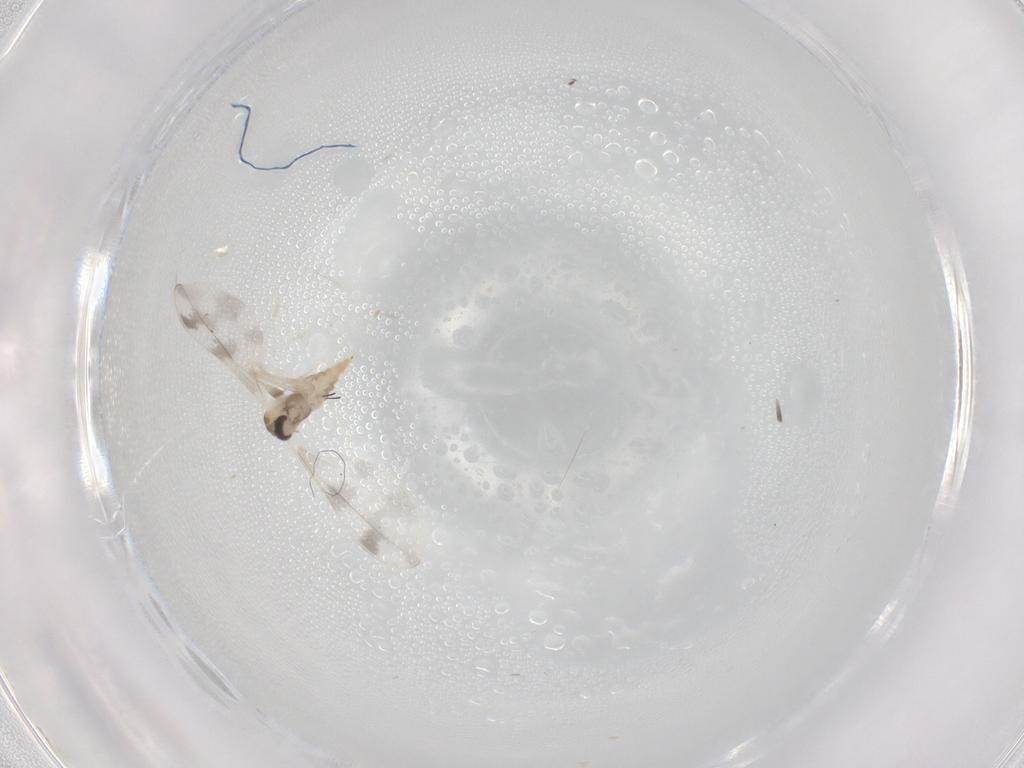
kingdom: Animalia
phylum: Arthropoda
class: Insecta
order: Diptera
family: Cecidomyiidae
